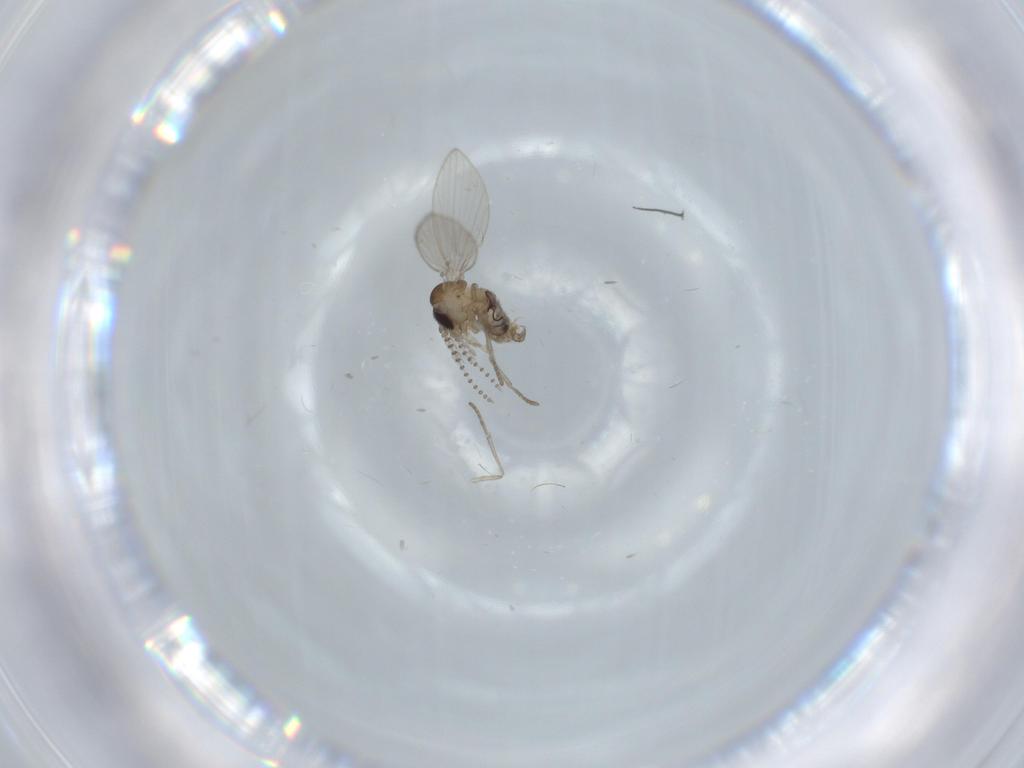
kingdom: Animalia
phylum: Arthropoda
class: Insecta
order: Diptera
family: Psychodidae
